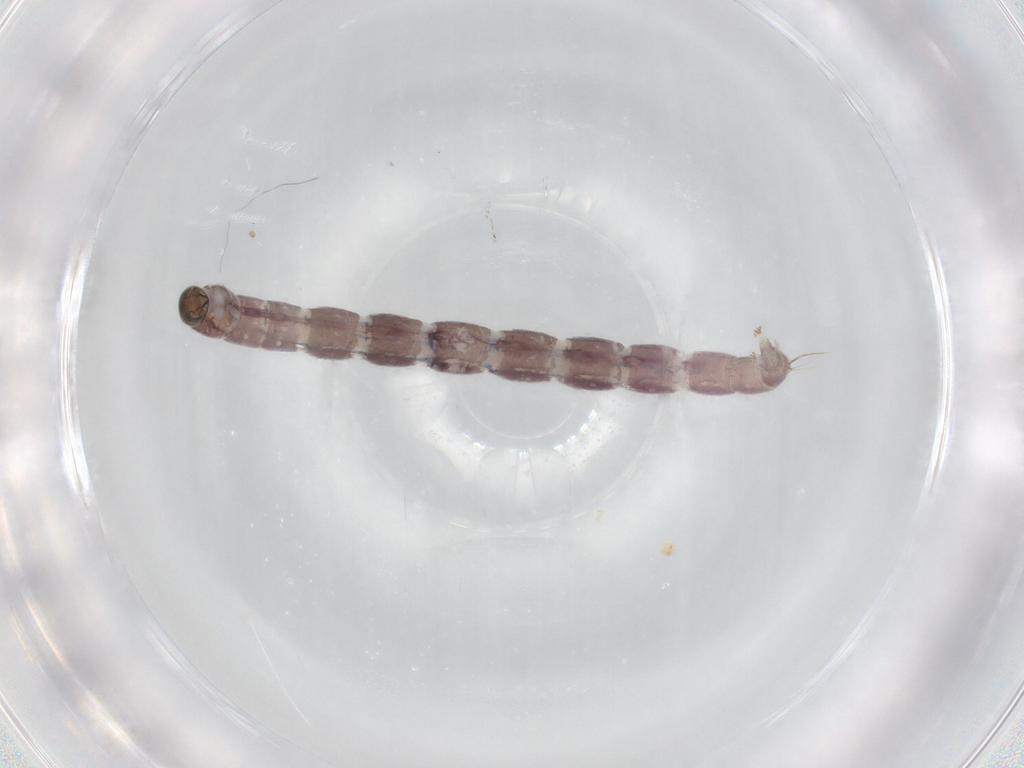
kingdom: Animalia
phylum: Arthropoda
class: Insecta
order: Diptera
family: Chironomidae
